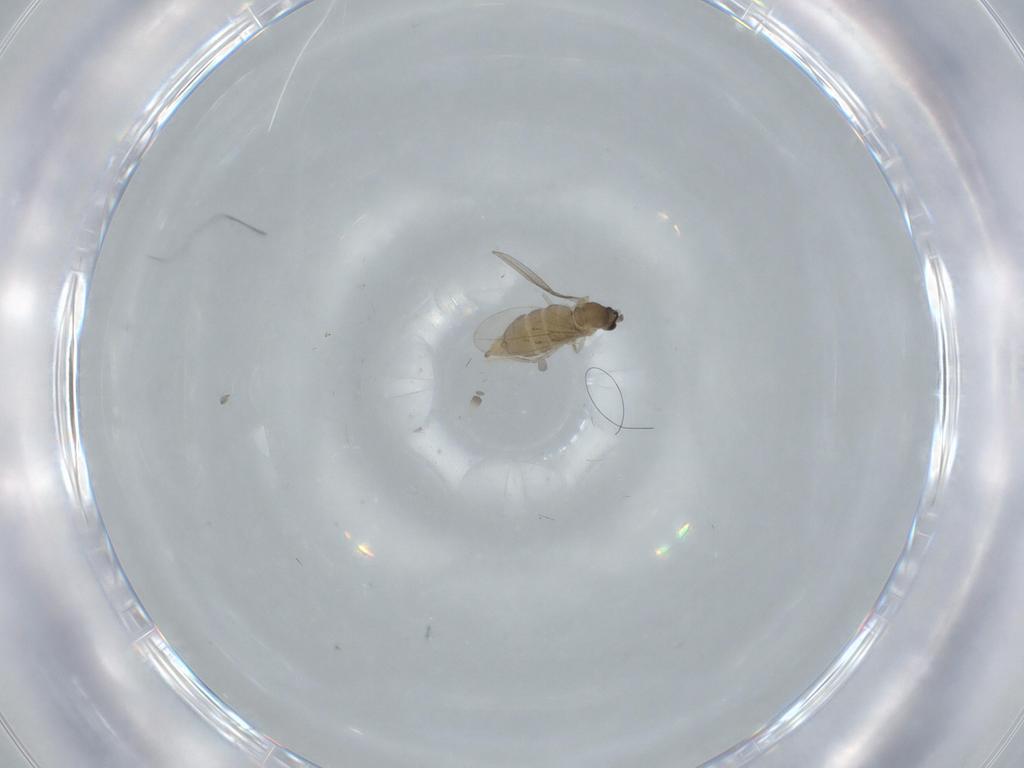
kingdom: Animalia
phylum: Arthropoda
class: Insecta
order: Diptera
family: Cecidomyiidae
